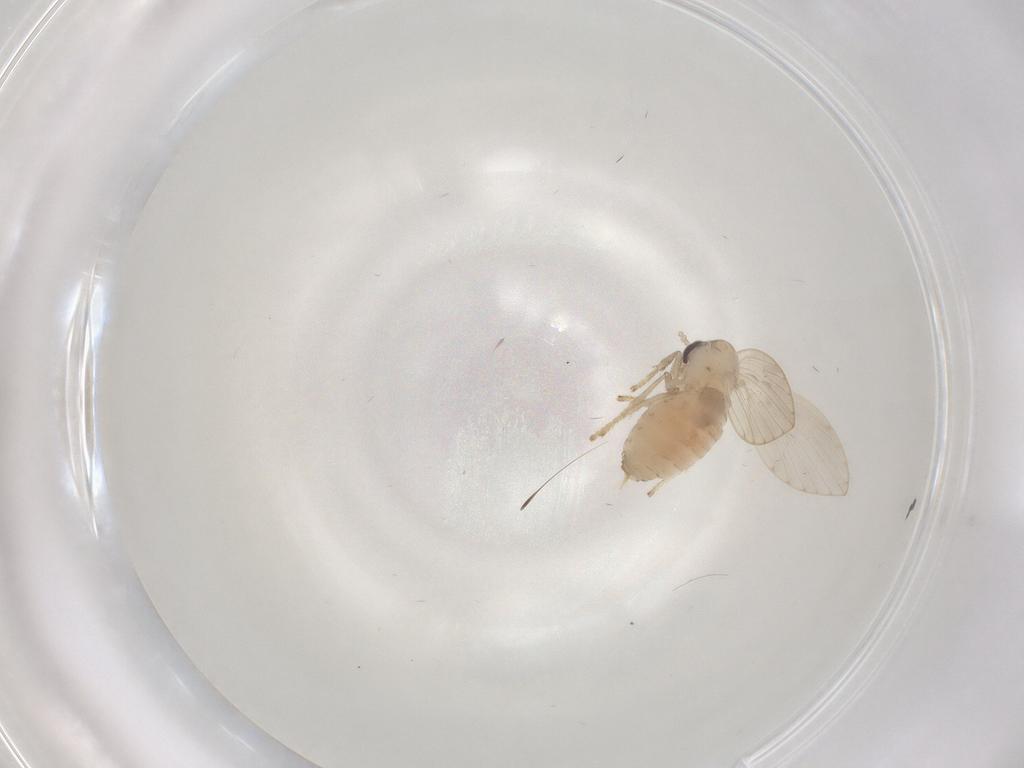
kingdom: Animalia
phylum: Arthropoda
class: Insecta
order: Diptera
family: Psychodidae
